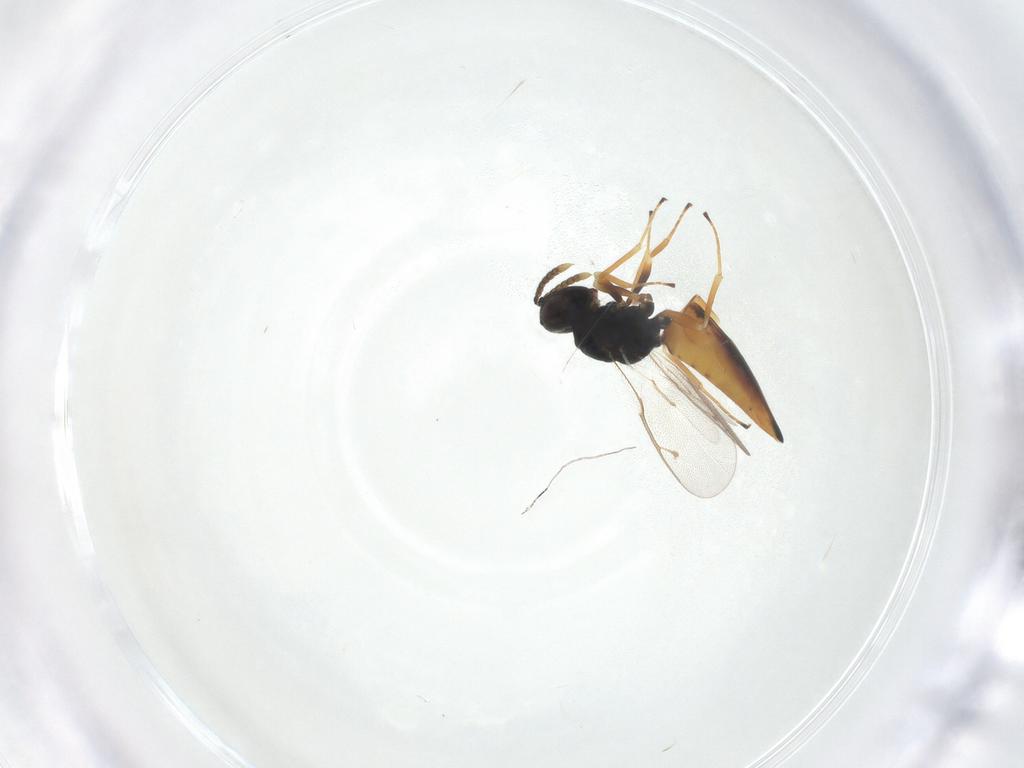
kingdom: Animalia
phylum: Arthropoda
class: Insecta
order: Hymenoptera
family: Pteromalidae
